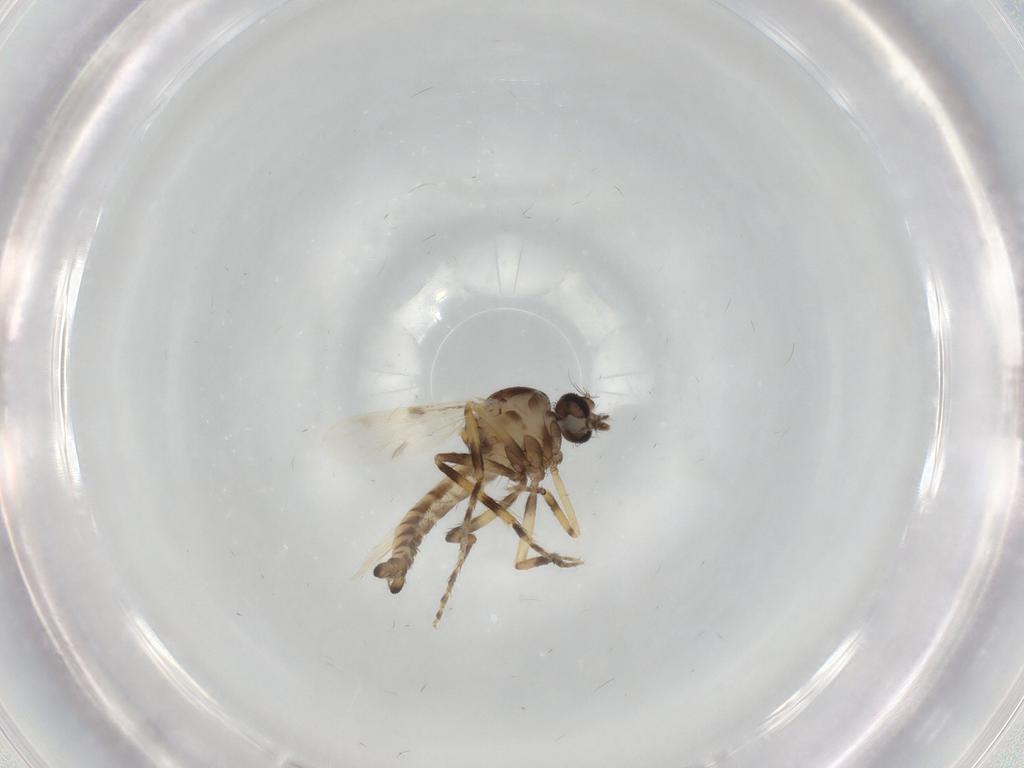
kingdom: Animalia
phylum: Arthropoda
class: Insecta
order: Diptera
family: Ceratopogonidae
